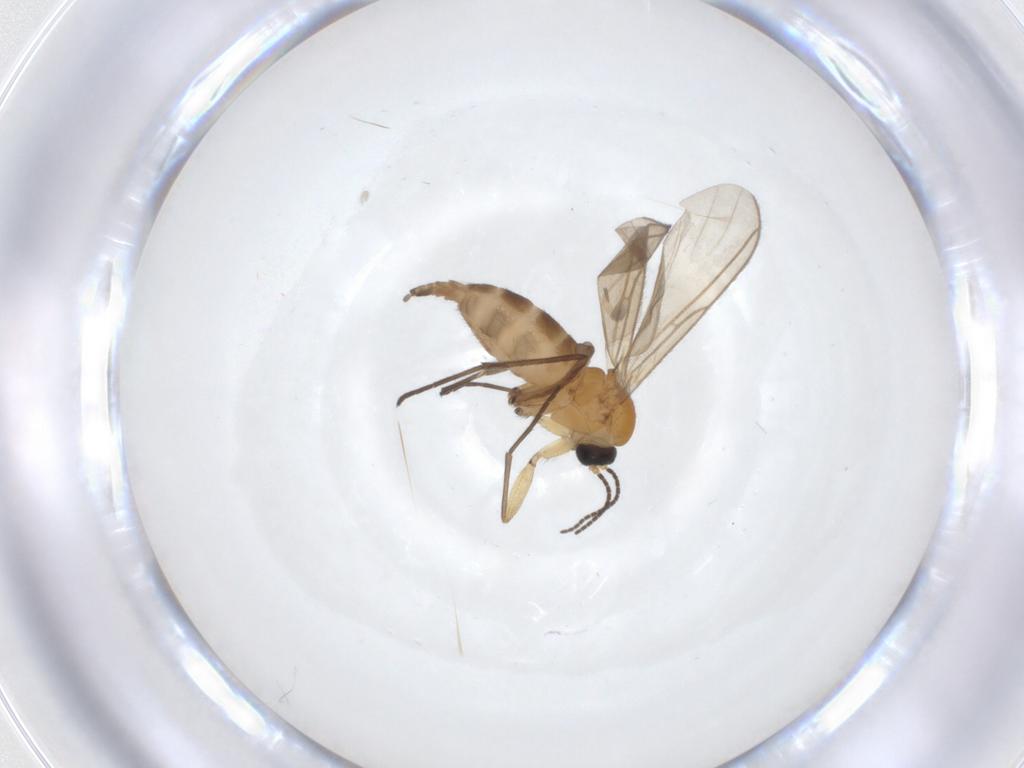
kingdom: Animalia
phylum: Arthropoda
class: Insecta
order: Diptera
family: Sciaridae
